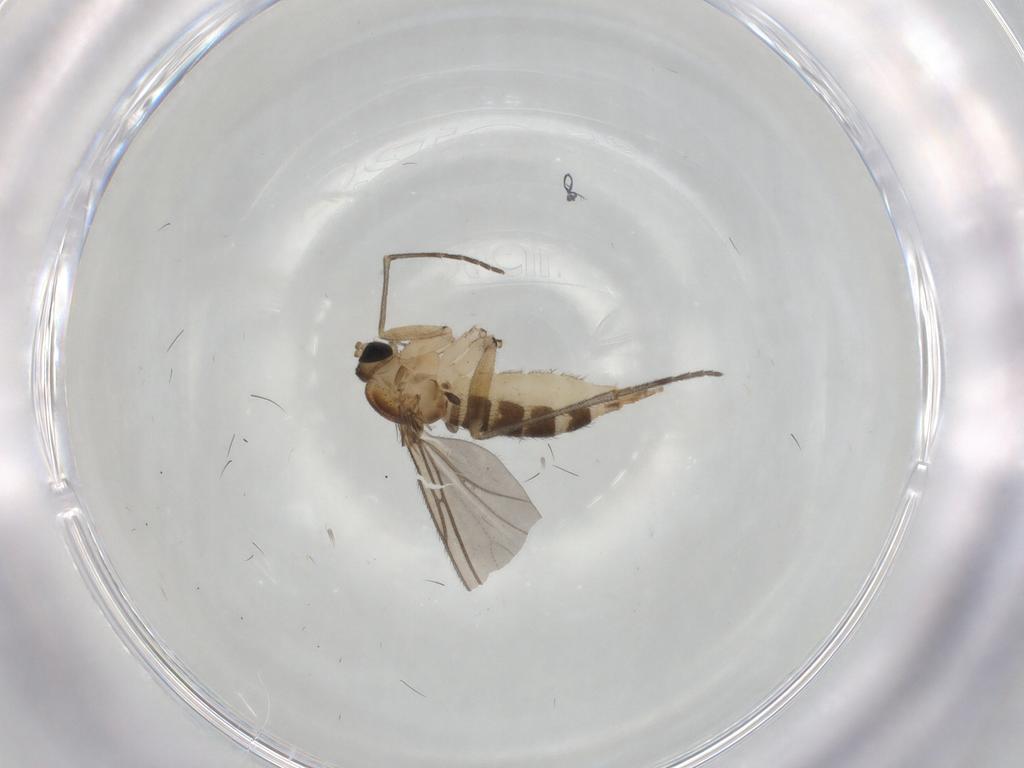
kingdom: Animalia
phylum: Arthropoda
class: Insecta
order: Diptera
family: Sciaridae
